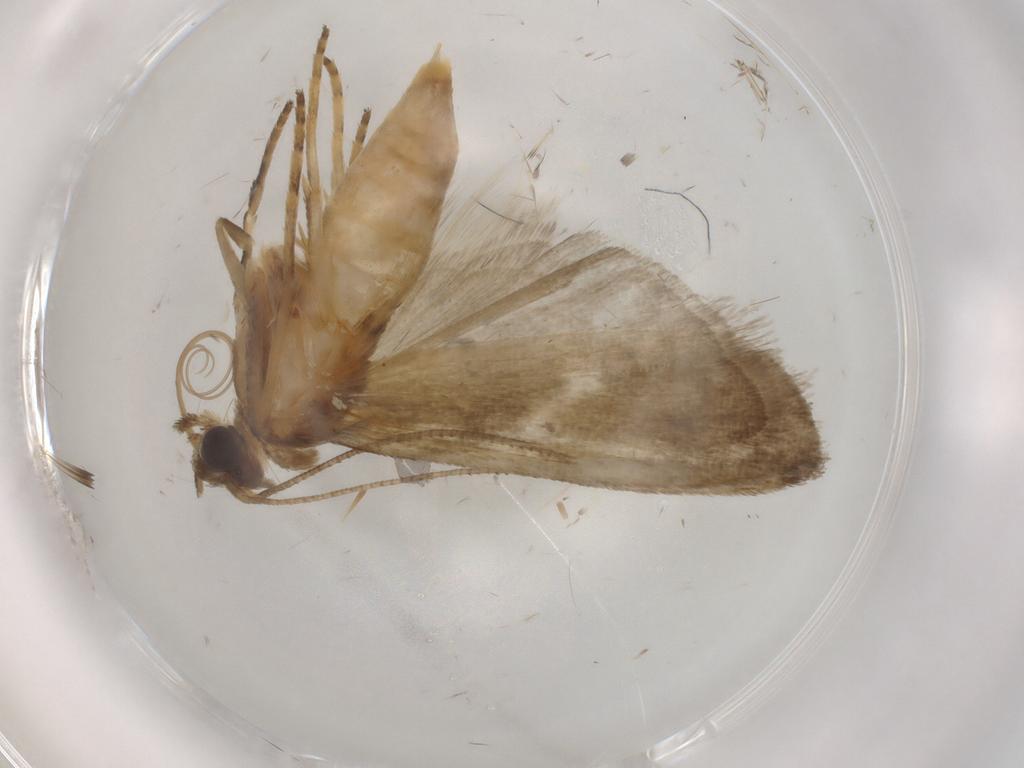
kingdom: Animalia
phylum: Arthropoda
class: Insecta
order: Lepidoptera
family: Noctuidae
